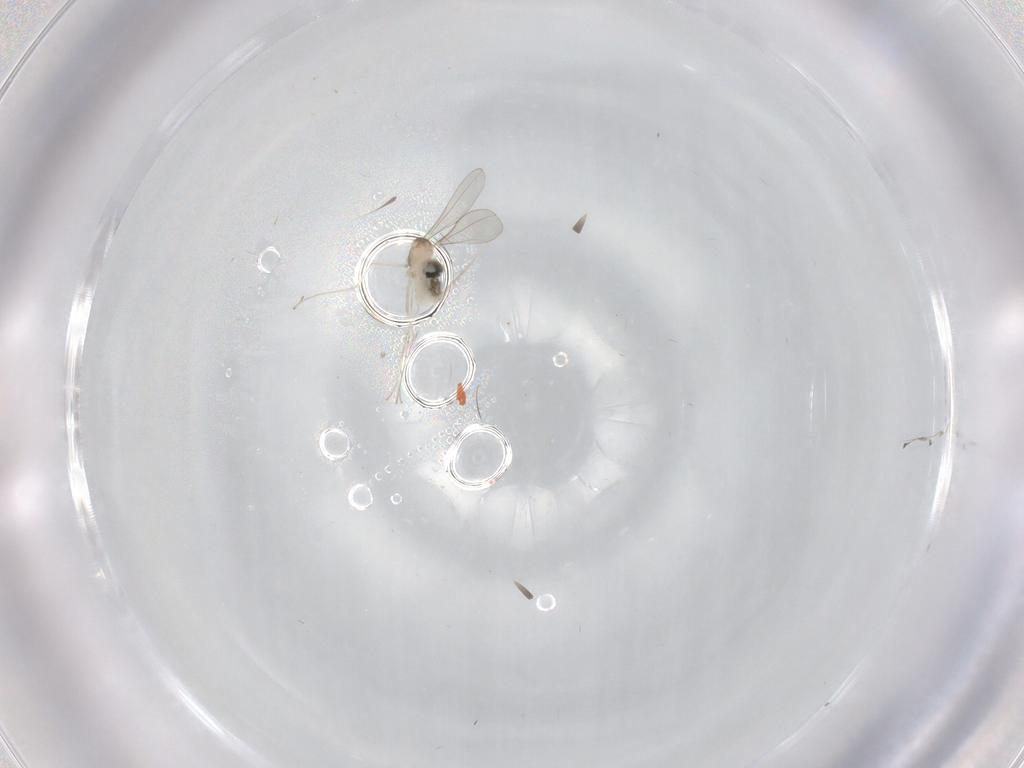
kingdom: Animalia
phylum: Arthropoda
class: Insecta
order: Diptera
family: Cecidomyiidae
